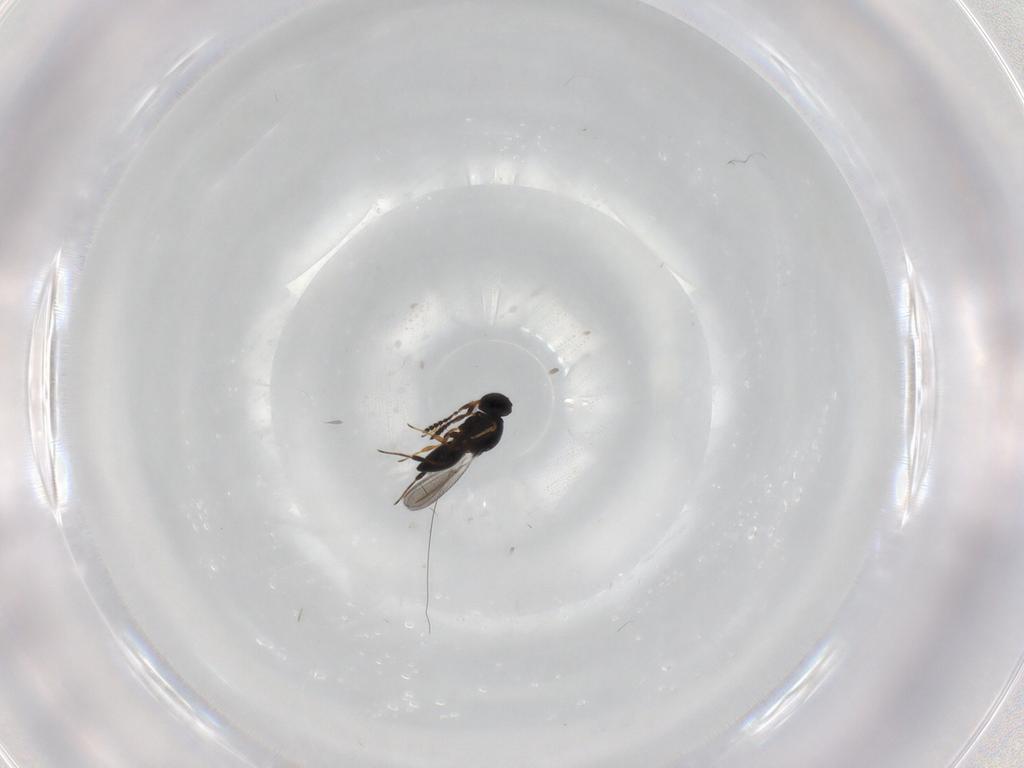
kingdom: Animalia
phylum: Arthropoda
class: Insecta
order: Hymenoptera
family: Platygastridae
